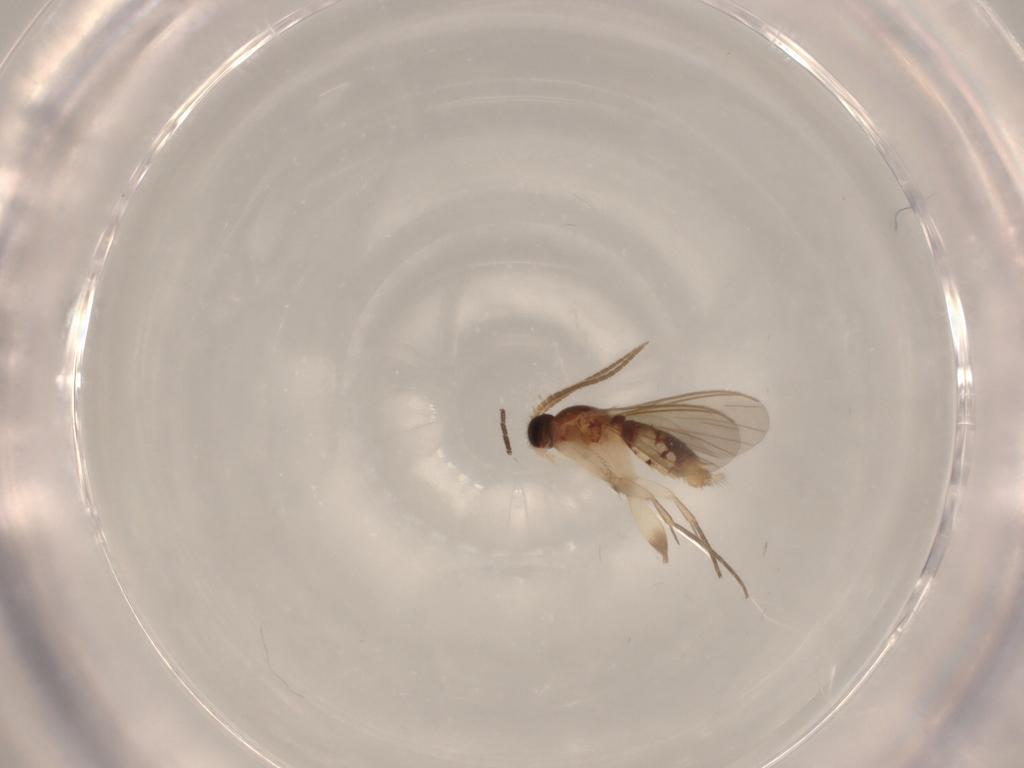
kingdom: Animalia
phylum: Arthropoda
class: Insecta
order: Diptera
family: Mycetophilidae
